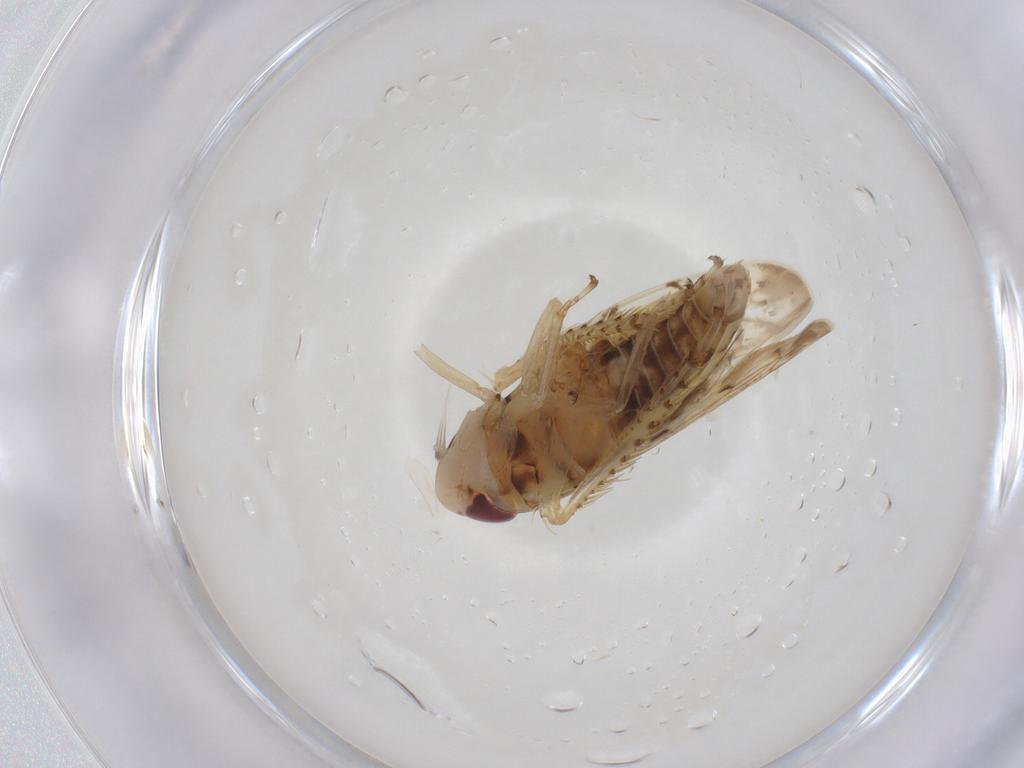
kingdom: Animalia
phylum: Arthropoda
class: Insecta
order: Hemiptera
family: Cicadellidae
